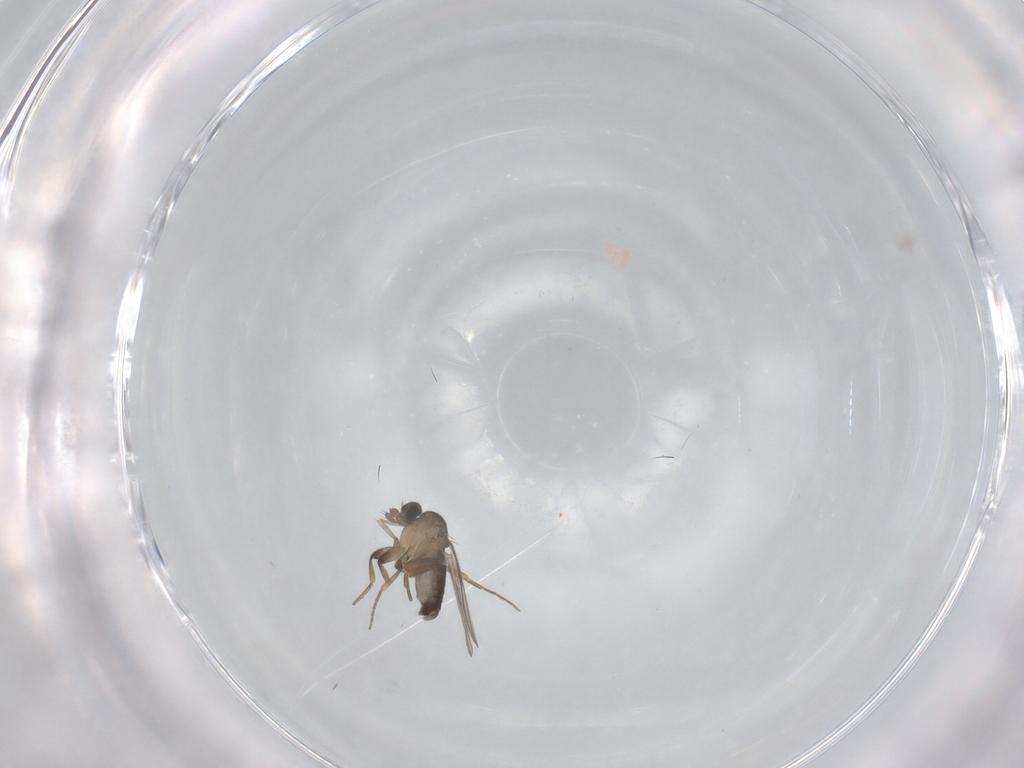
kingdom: Animalia
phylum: Arthropoda
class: Insecta
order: Diptera
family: Phoridae
